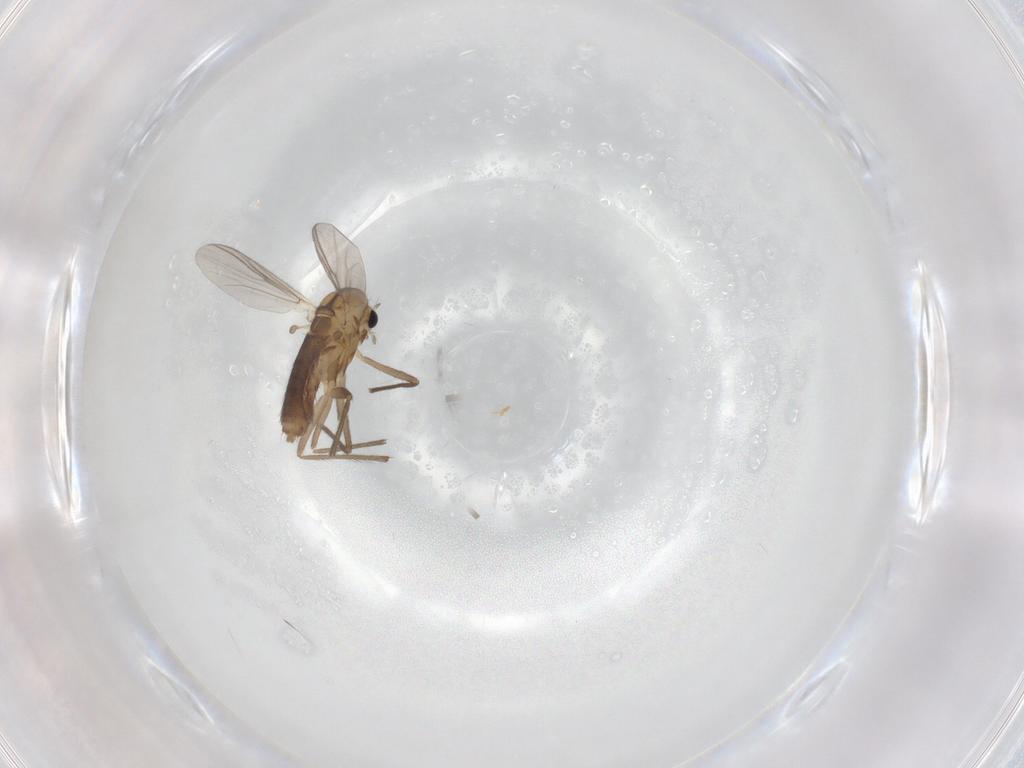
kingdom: Animalia
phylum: Arthropoda
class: Insecta
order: Diptera
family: Chironomidae
